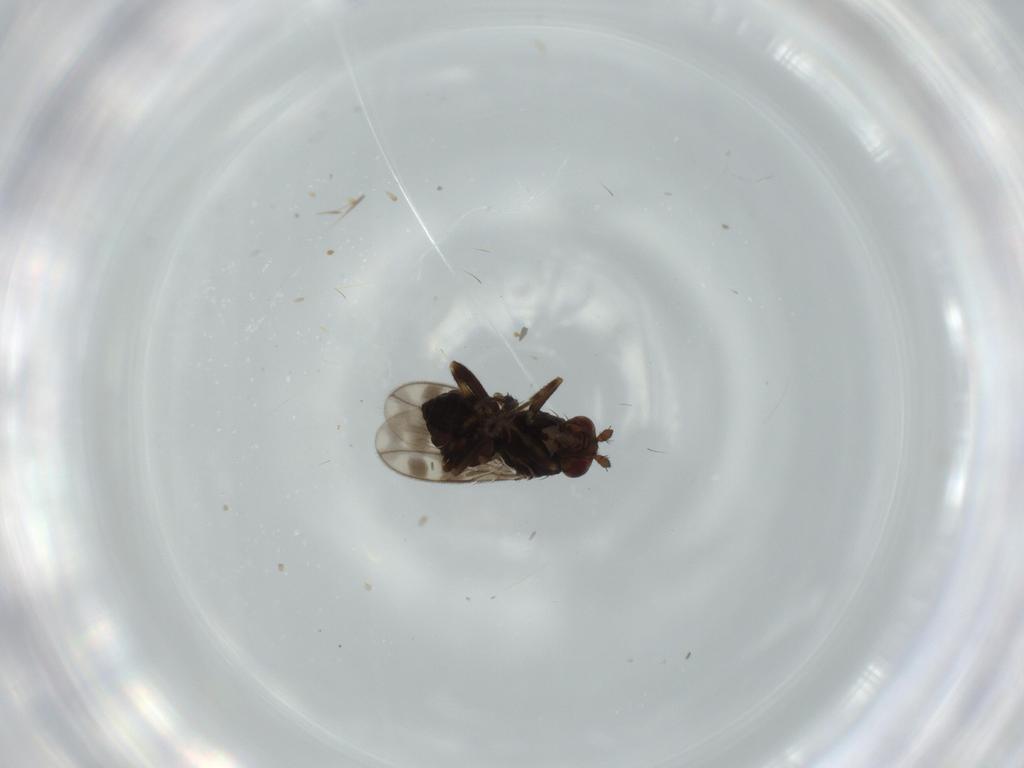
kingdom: Animalia
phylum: Arthropoda
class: Insecta
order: Diptera
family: Sphaeroceridae
